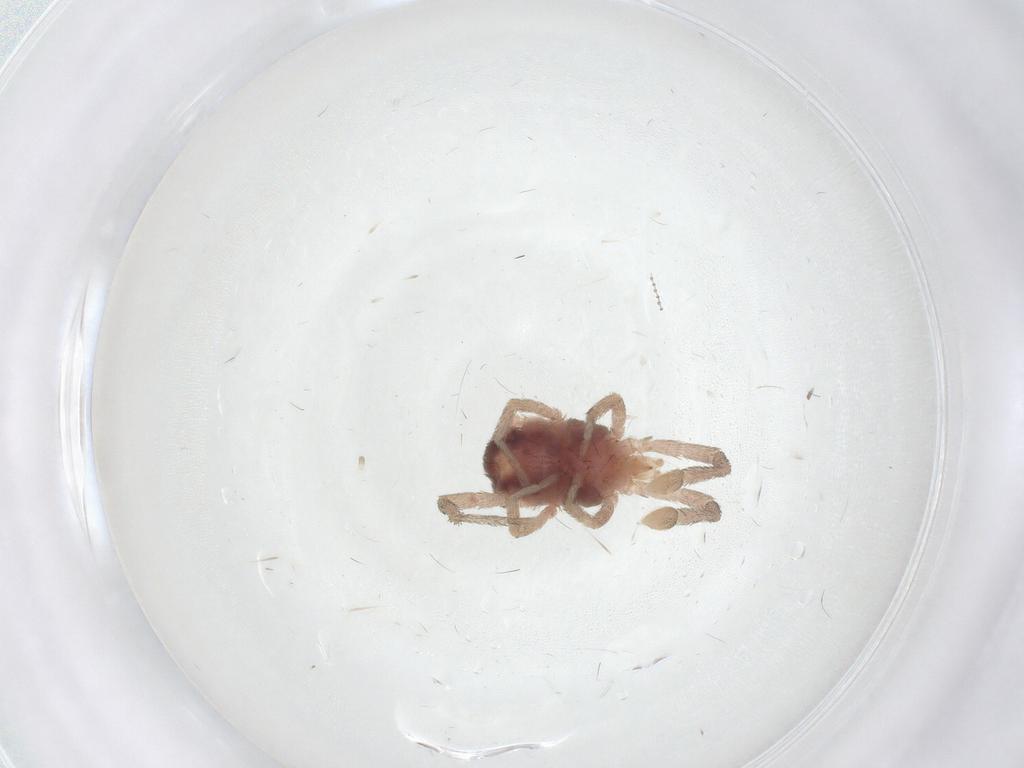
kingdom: Animalia
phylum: Arthropoda
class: Arachnida
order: Trombidiformes
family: Erythraeidae
